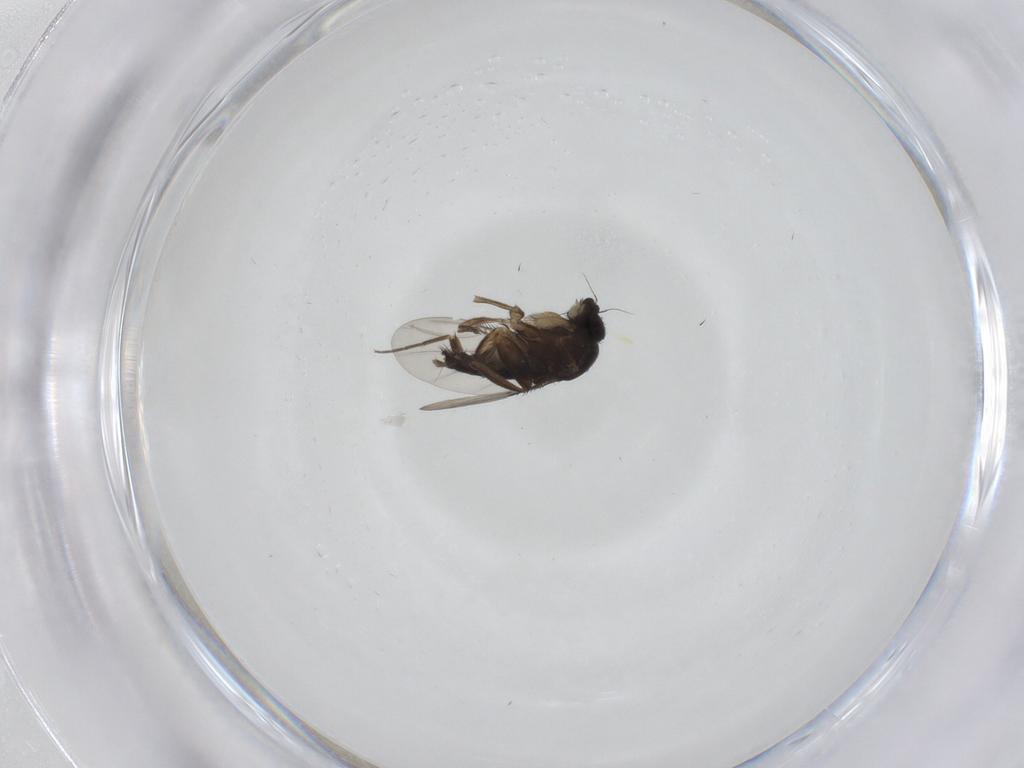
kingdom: Animalia
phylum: Arthropoda
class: Insecta
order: Diptera
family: Phoridae
